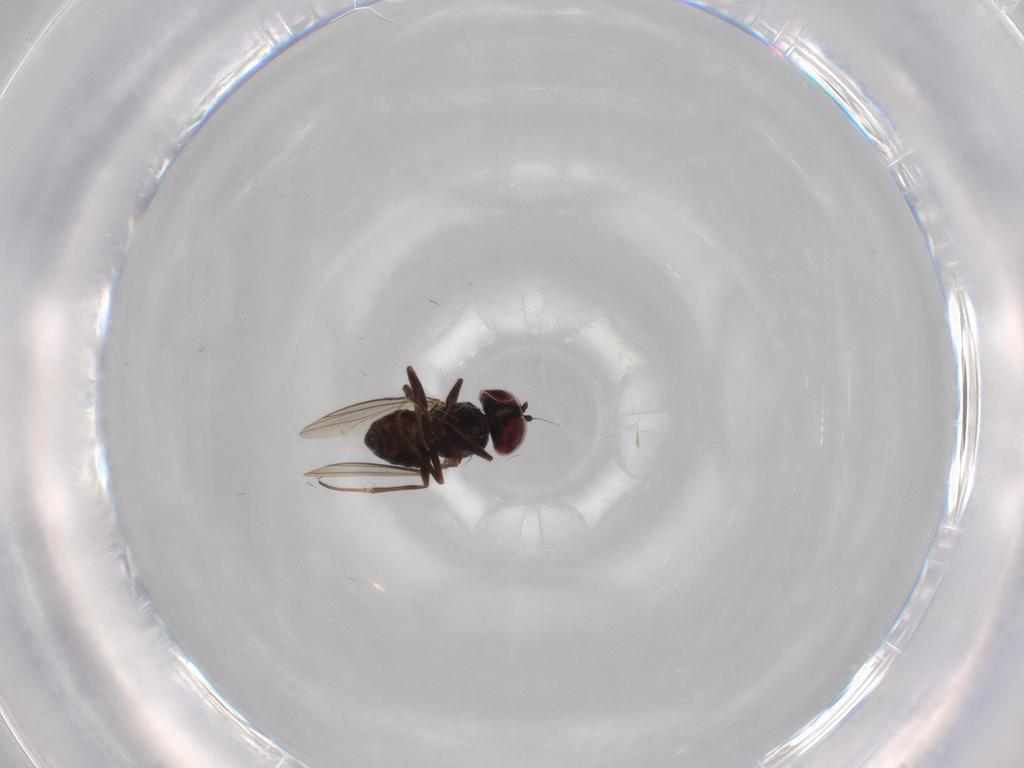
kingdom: Animalia
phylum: Arthropoda
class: Insecta
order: Diptera
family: Dolichopodidae
